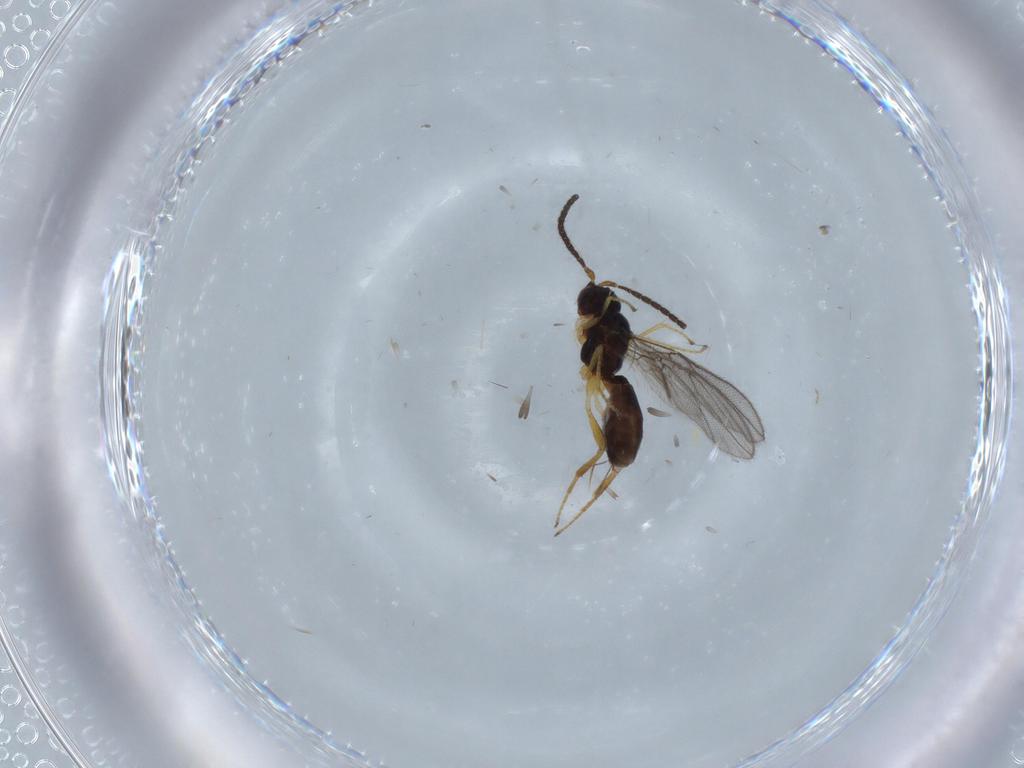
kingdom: Animalia
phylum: Arthropoda
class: Insecta
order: Hymenoptera
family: Braconidae
